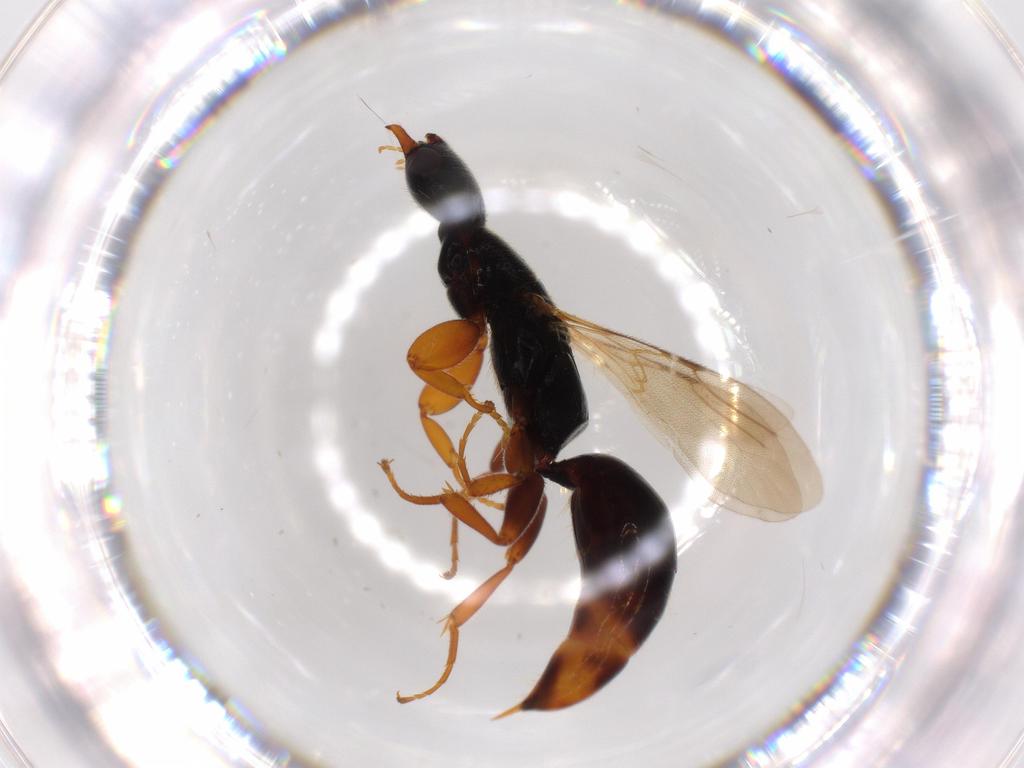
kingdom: Animalia
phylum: Arthropoda
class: Insecta
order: Hymenoptera
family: Bethylidae
